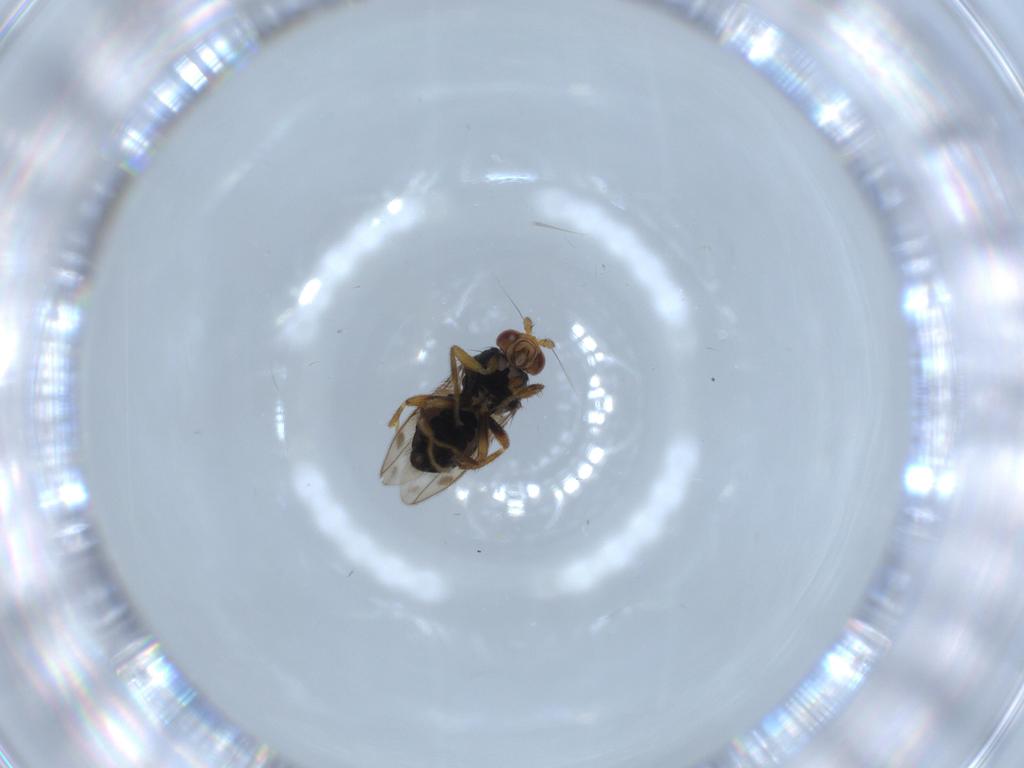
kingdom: Animalia
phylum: Arthropoda
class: Insecta
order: Diptera
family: Sphaeroceridae
